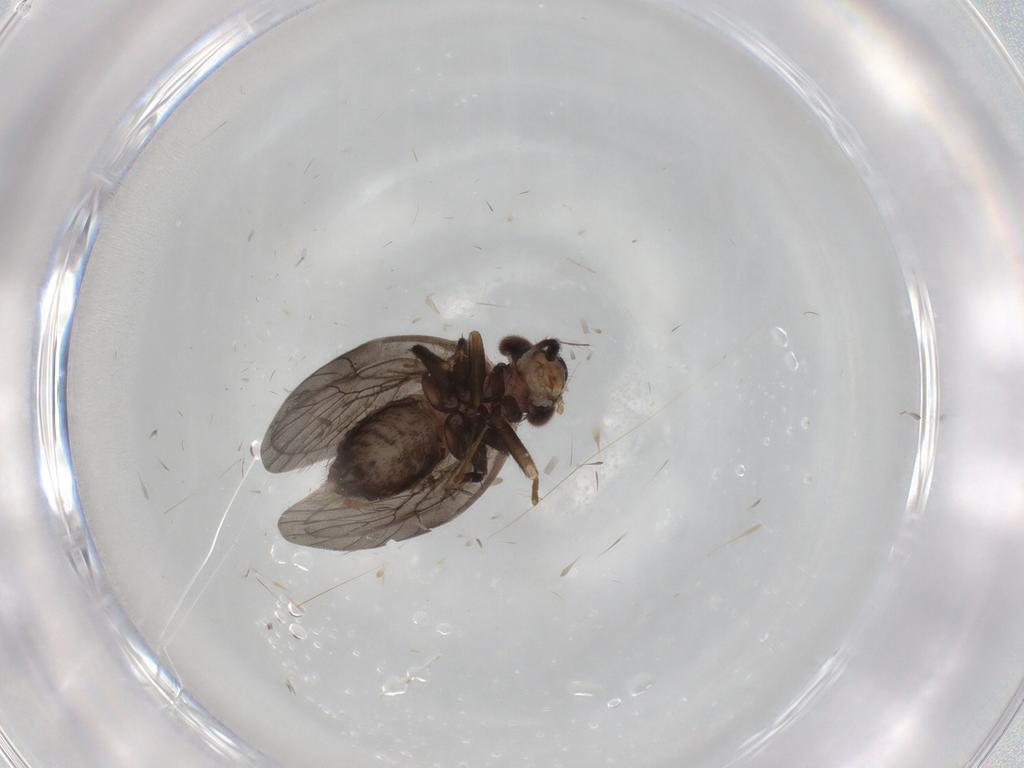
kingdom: Animalia
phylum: Arthropoda
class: Insecta
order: Psocodea
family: Lepidopsocidae
